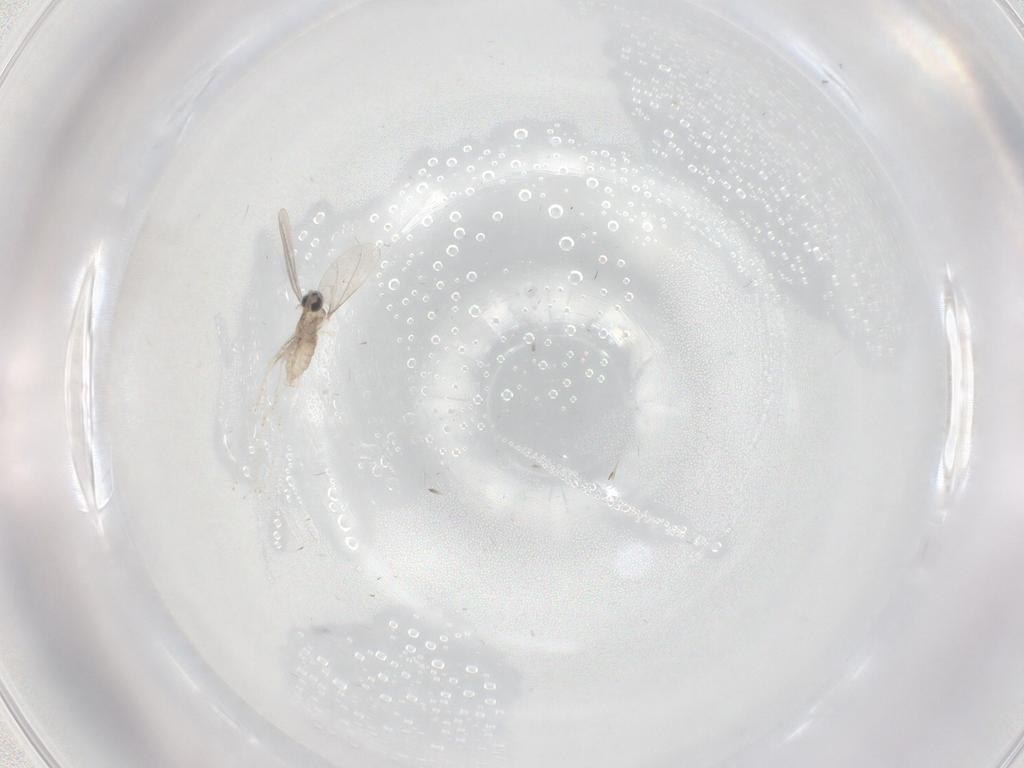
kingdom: Animalia
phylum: Arthropoda
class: Insecta
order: Diptera
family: Cecidomyiidae
